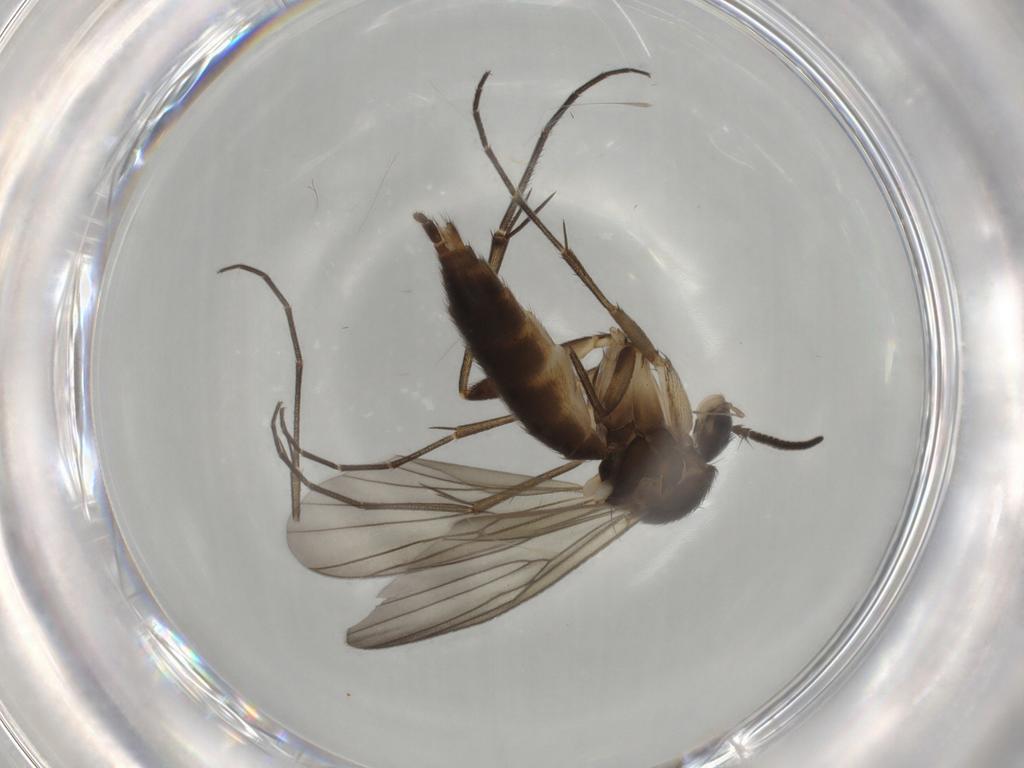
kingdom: Animalia
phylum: Arthropoda
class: Insecta
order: Diptera
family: Mycetophilidae
